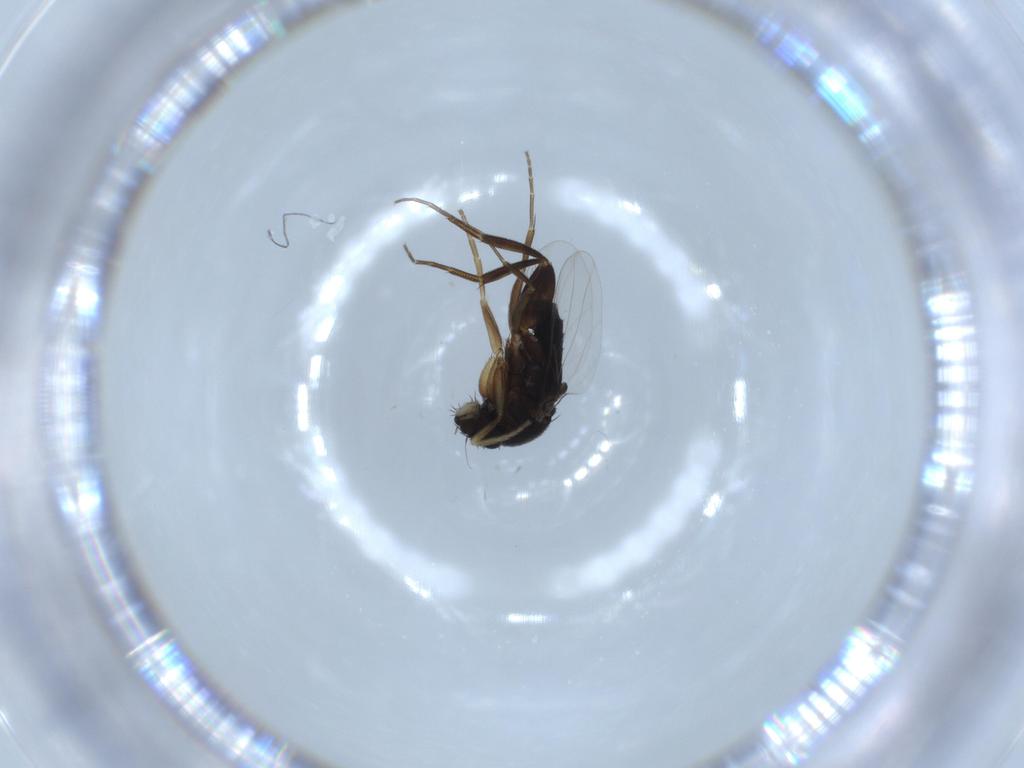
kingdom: Animalia
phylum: Arthropoda
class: Insecta
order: Diptera
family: Phoridae
